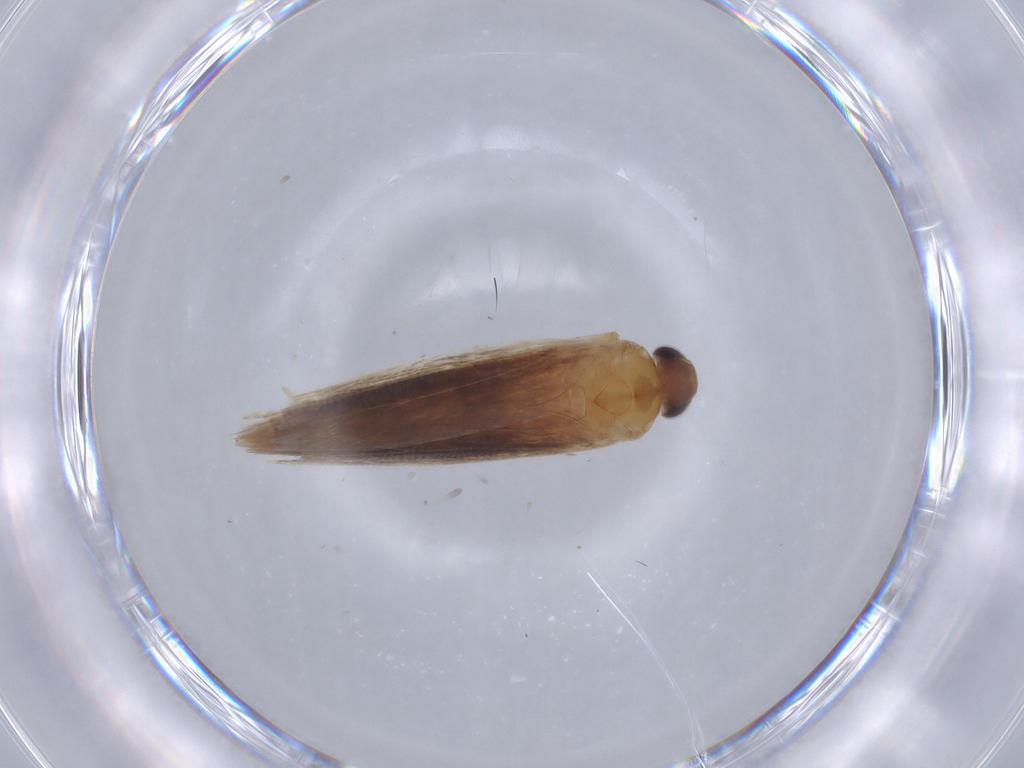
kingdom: Animalia
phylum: Arthropoda
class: Insecta
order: Lepidoptera
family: Gelechiidae
